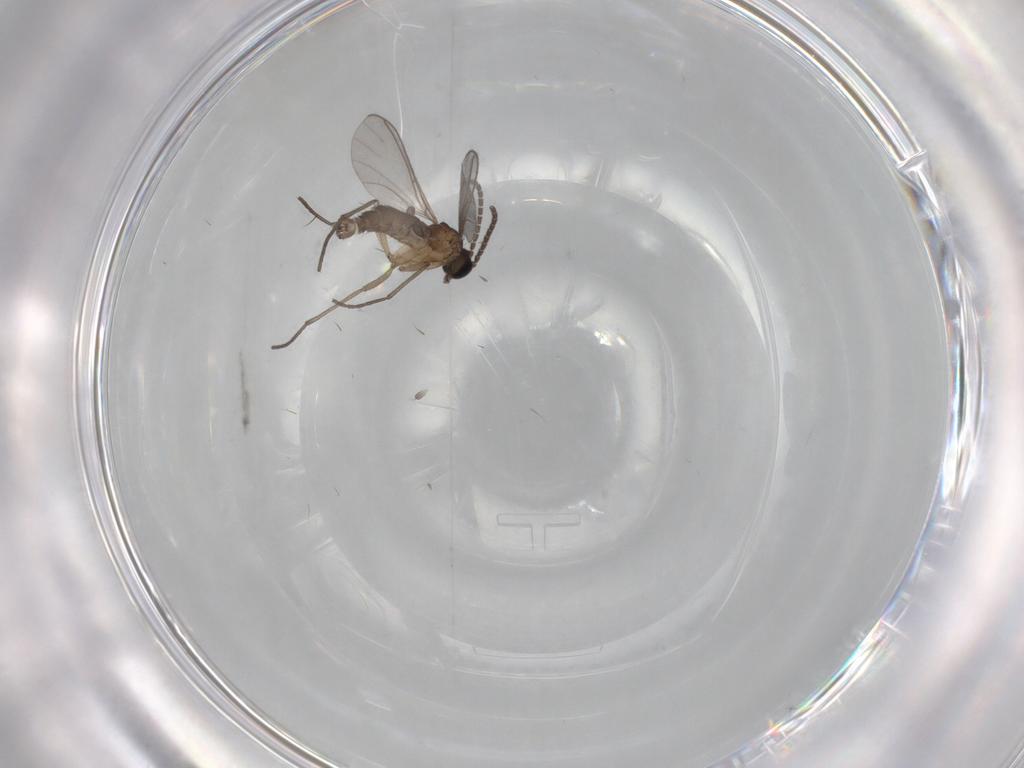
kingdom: Animalia
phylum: Arthropoda
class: Insecta
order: Diptera
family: Sciaridae
